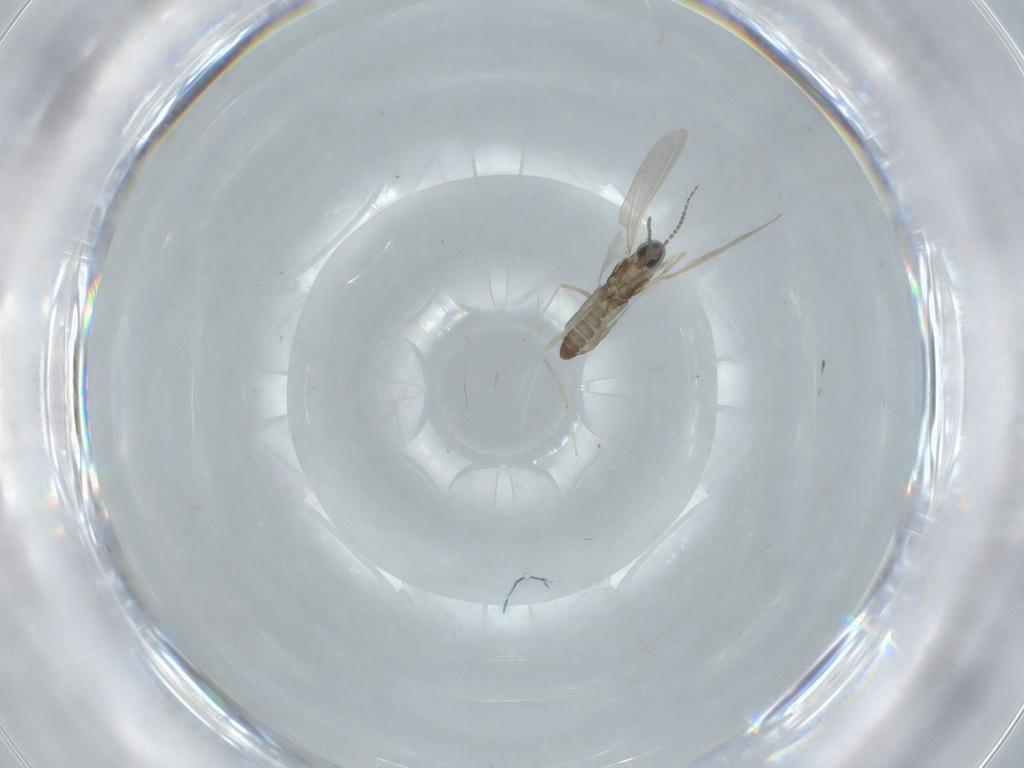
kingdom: Animalia
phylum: Arthropoda
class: Insecta
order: Diptera
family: Cecidomyiidae
